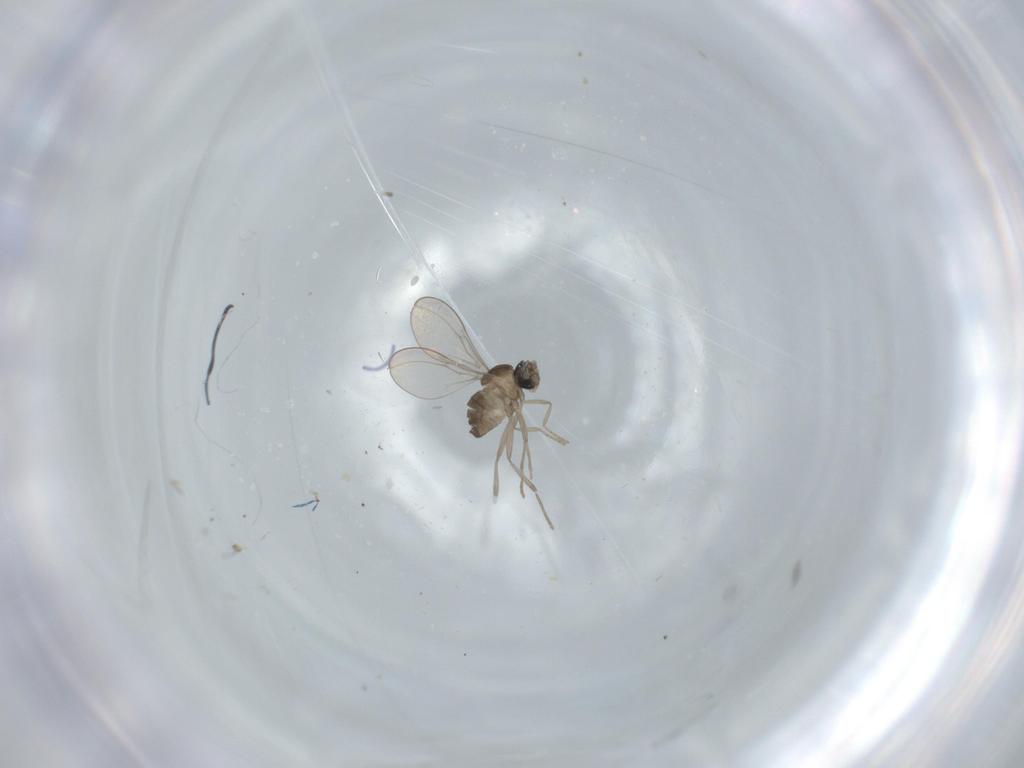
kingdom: Animalia
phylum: Arthropoda
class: Insecta
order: Diptera
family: Cecidomyiidae
